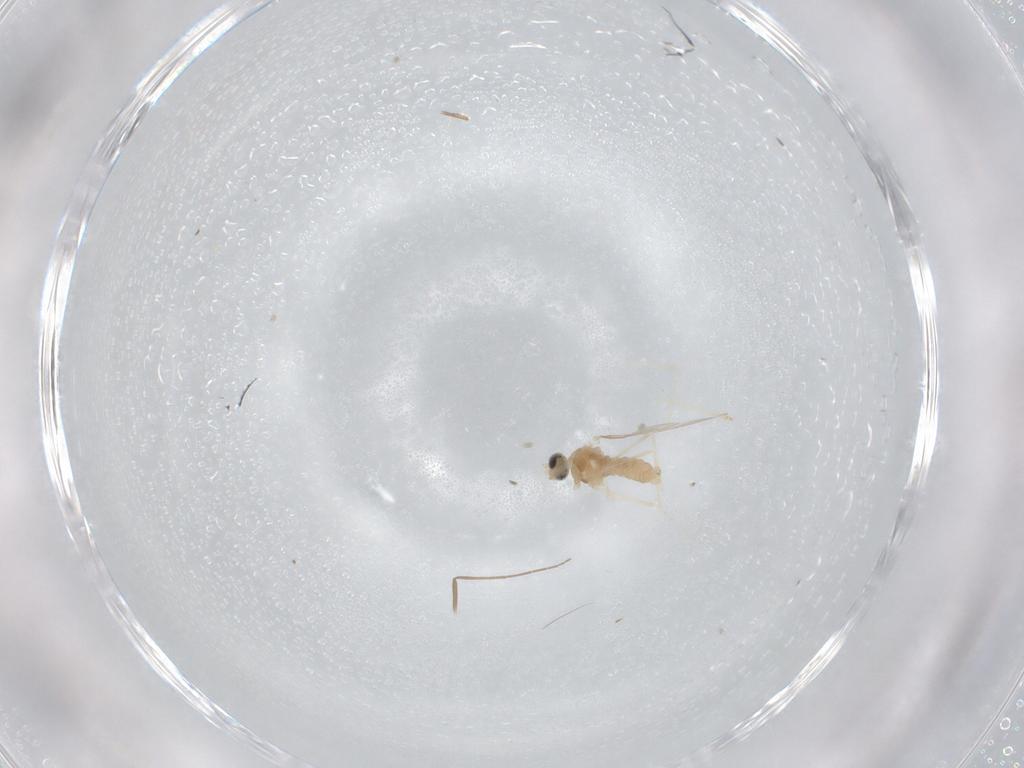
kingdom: Animalia
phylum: Arthropoda
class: Insecta
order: Diptera
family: Cecidomyiidae
